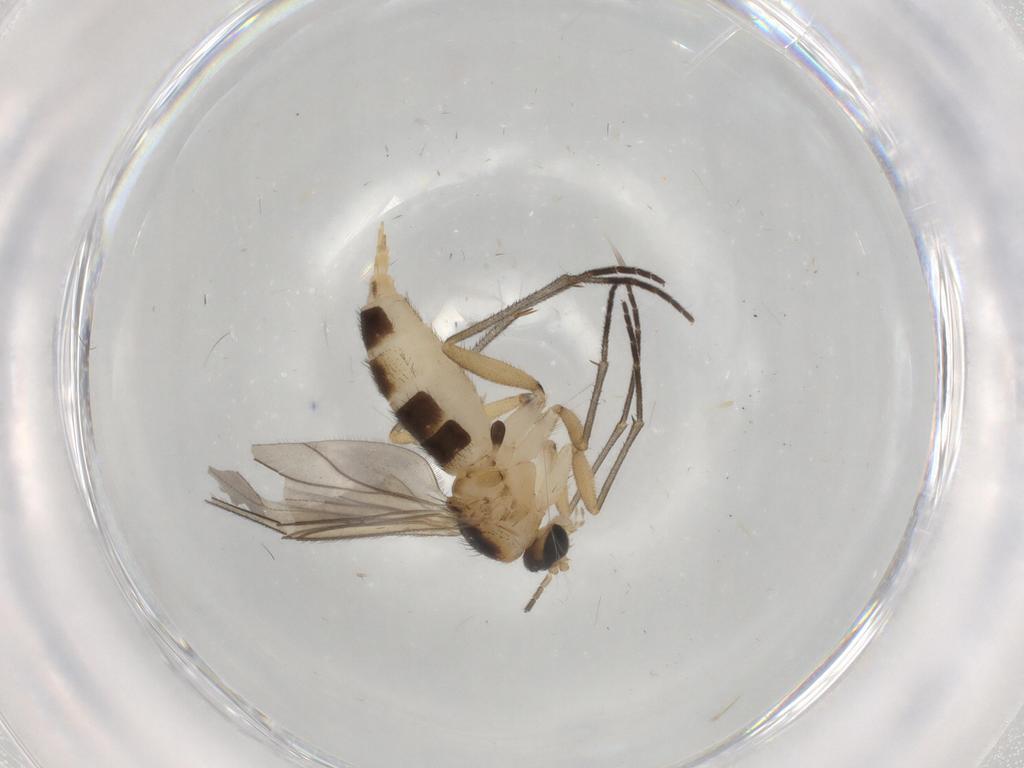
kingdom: Animalia
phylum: Arthropoda
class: Insecta
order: Diptera
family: Sciaridae
